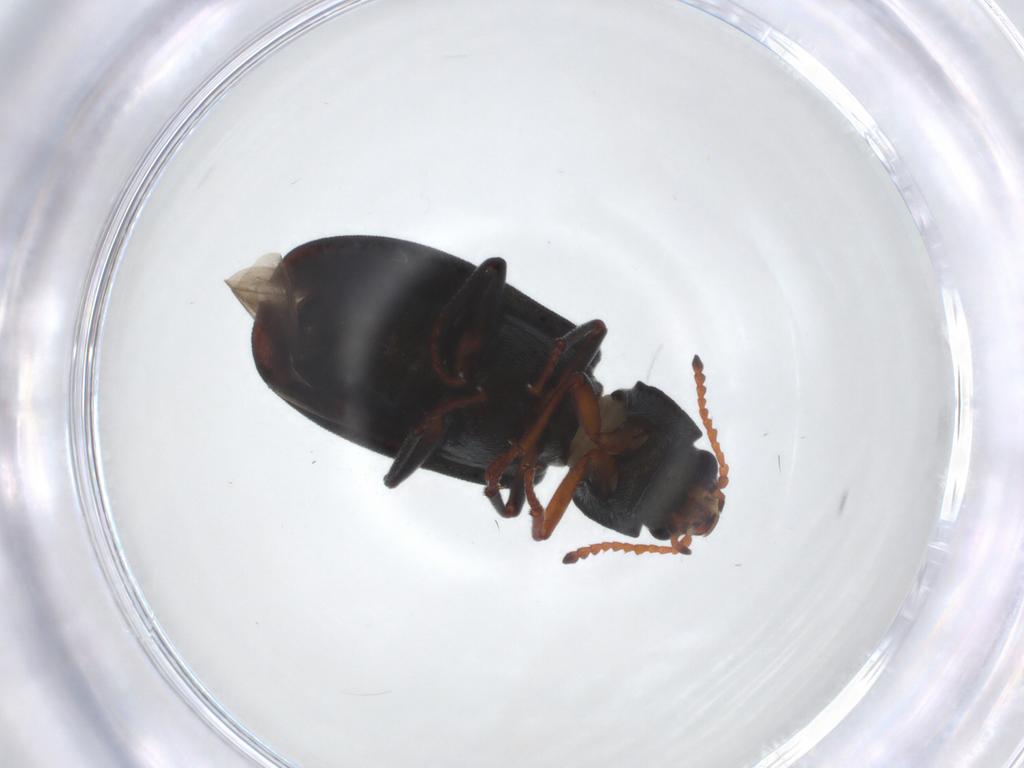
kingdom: Animalia
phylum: Arthropoda
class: Insecta
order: Coleoptera
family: Melyridae
